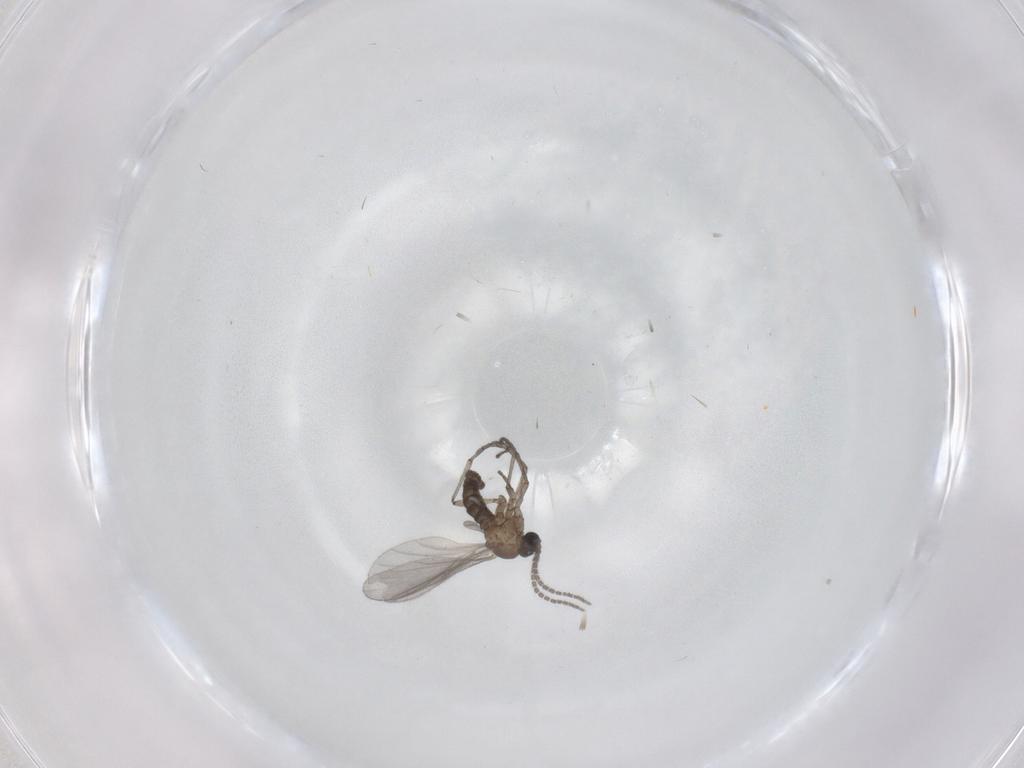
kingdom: Animalia
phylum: Arthropoda
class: Insecta
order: Diptera
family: Sciaridae
